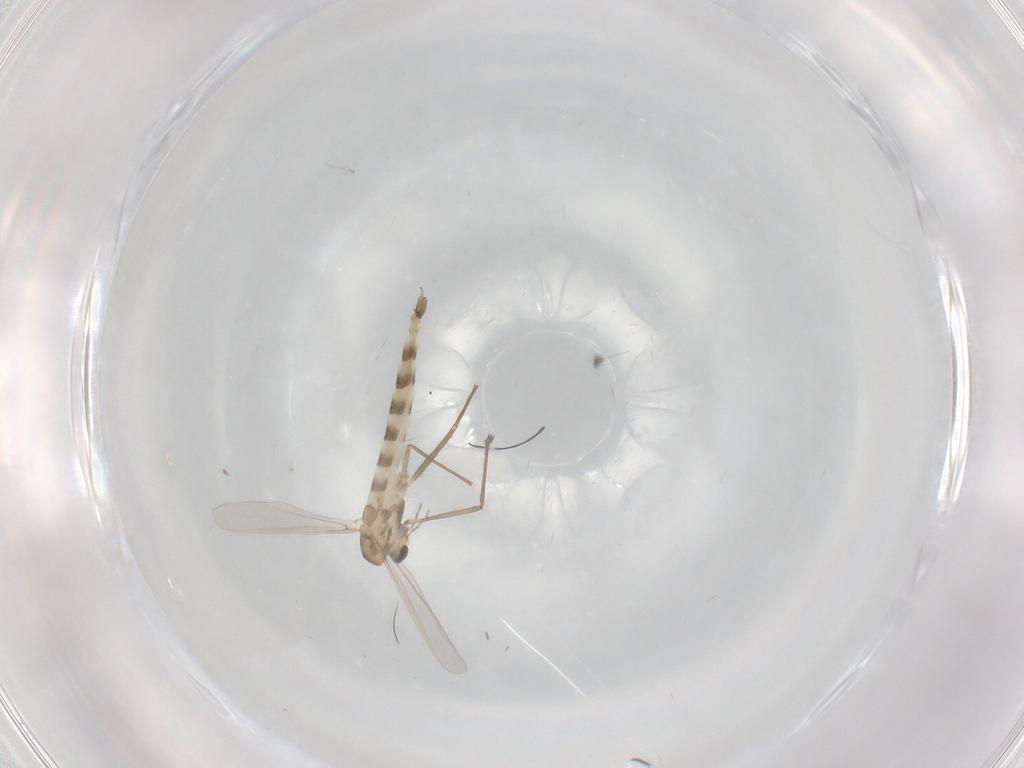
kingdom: Animalia
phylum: Arthropoda
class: Insecta
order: Diptera
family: Chironomidae
